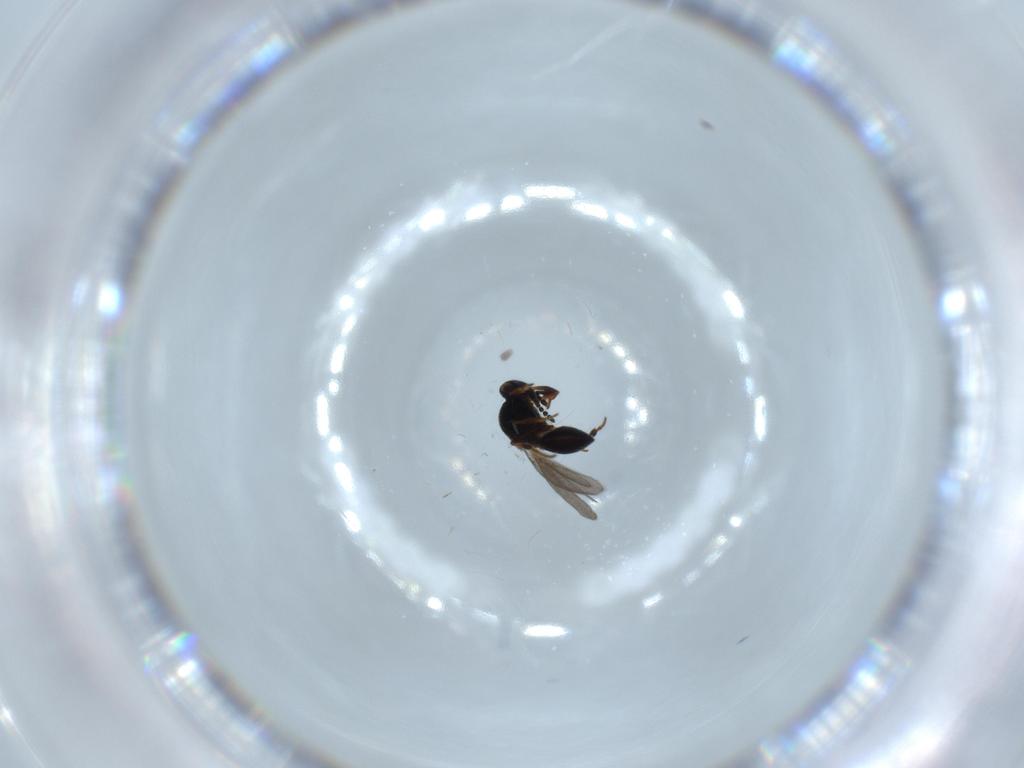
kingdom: Animalia
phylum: Arthropoda
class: Insecta
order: Hymenoptera
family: Platygastridae
